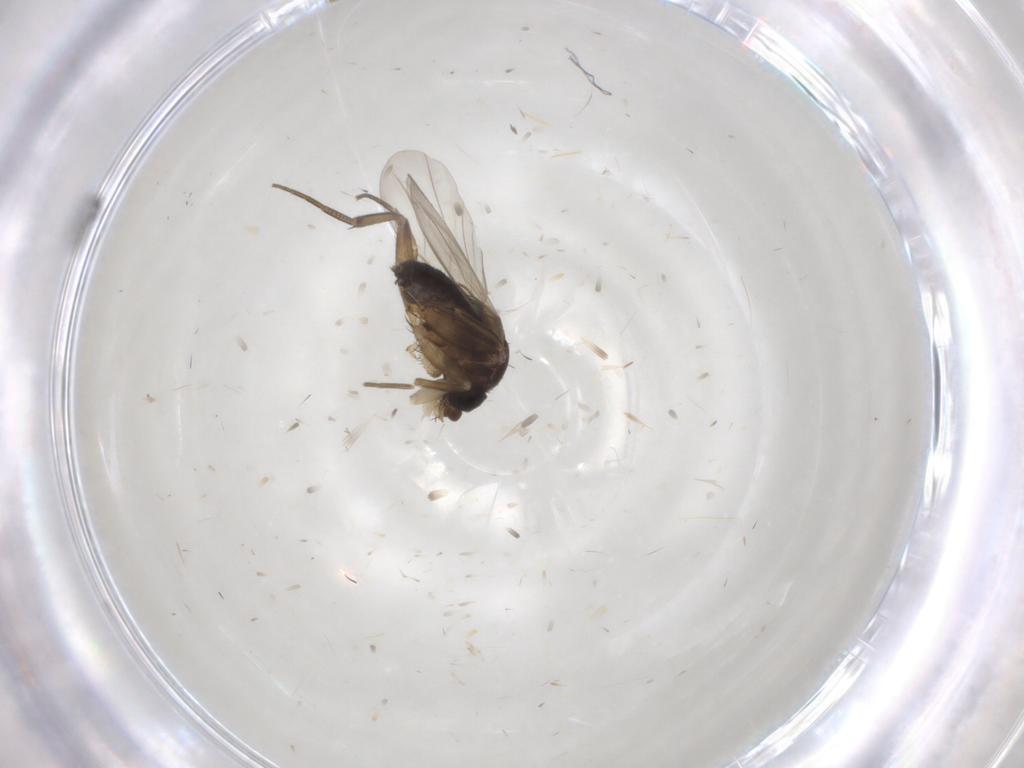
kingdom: Animalia
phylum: Arthropoda
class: Insecta
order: Diptera
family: Phoridae
